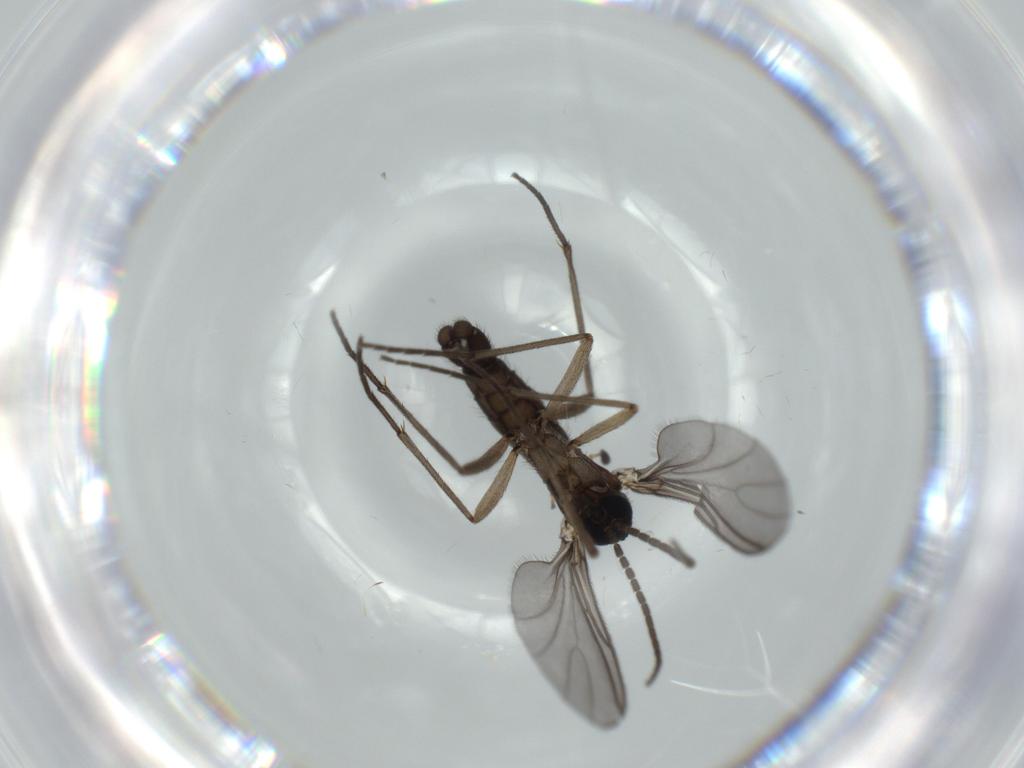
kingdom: Animalia
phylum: Arthropoda
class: Insecta
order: Diptera
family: Sciaridae
